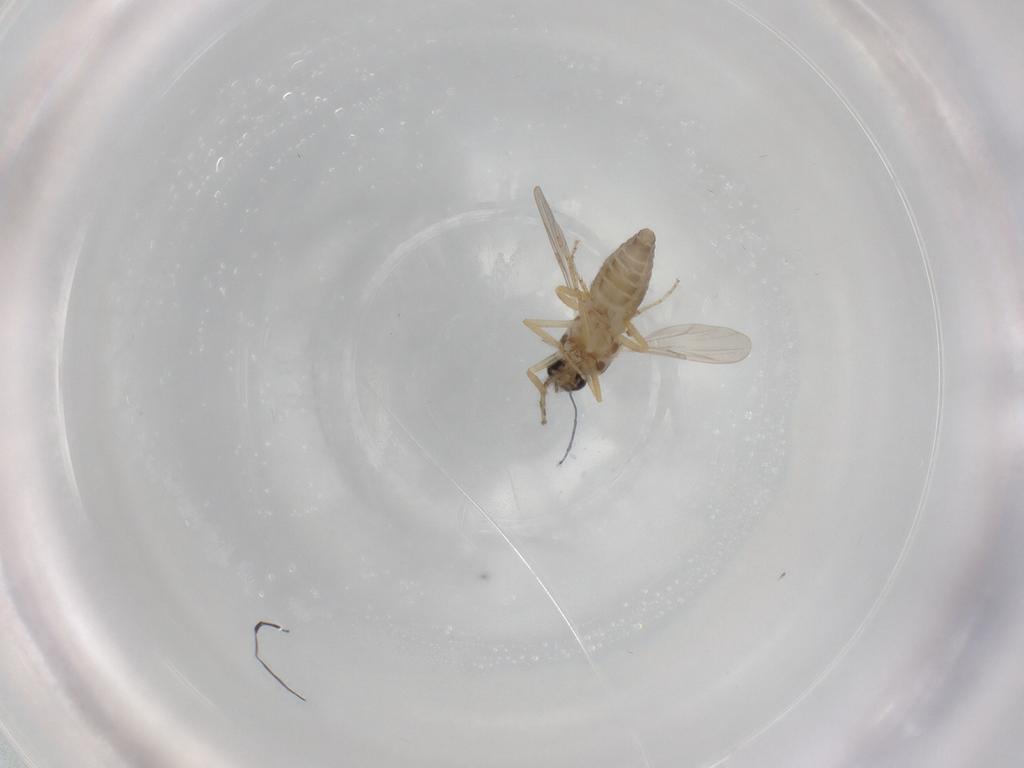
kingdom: Animalia
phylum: Arthropoda
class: Insecta
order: Diptera
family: Ceratopogonidae
